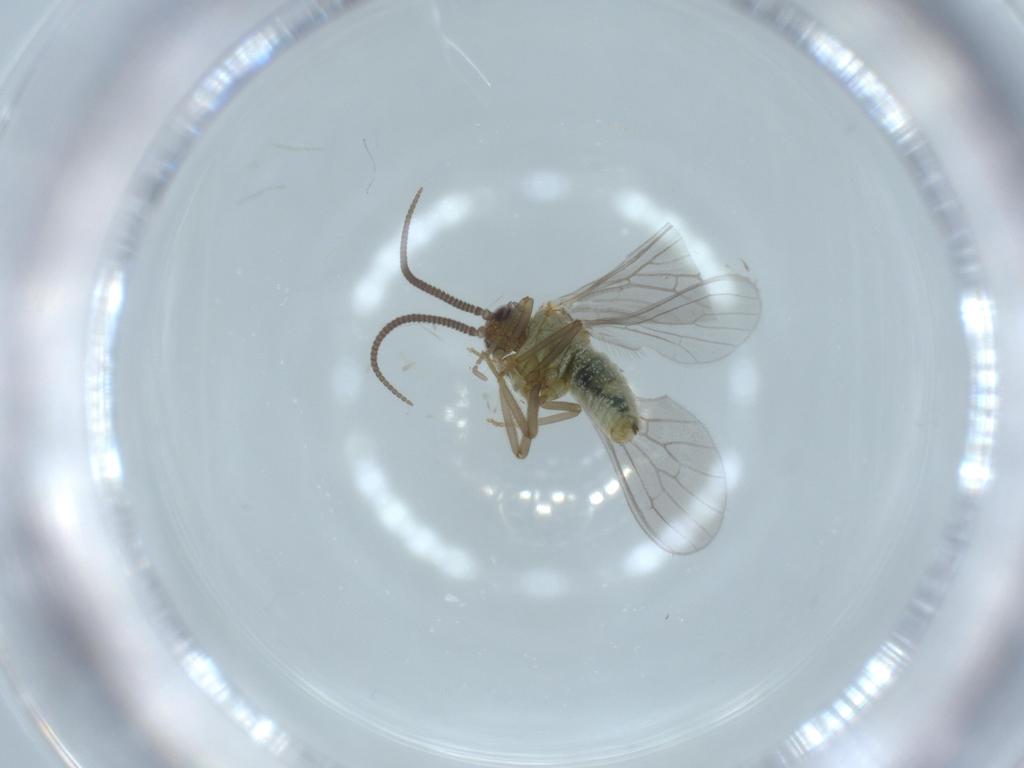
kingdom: Animalia
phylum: Arthropoda
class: Insecta
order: Neuroptera
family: Coniopterygidae
